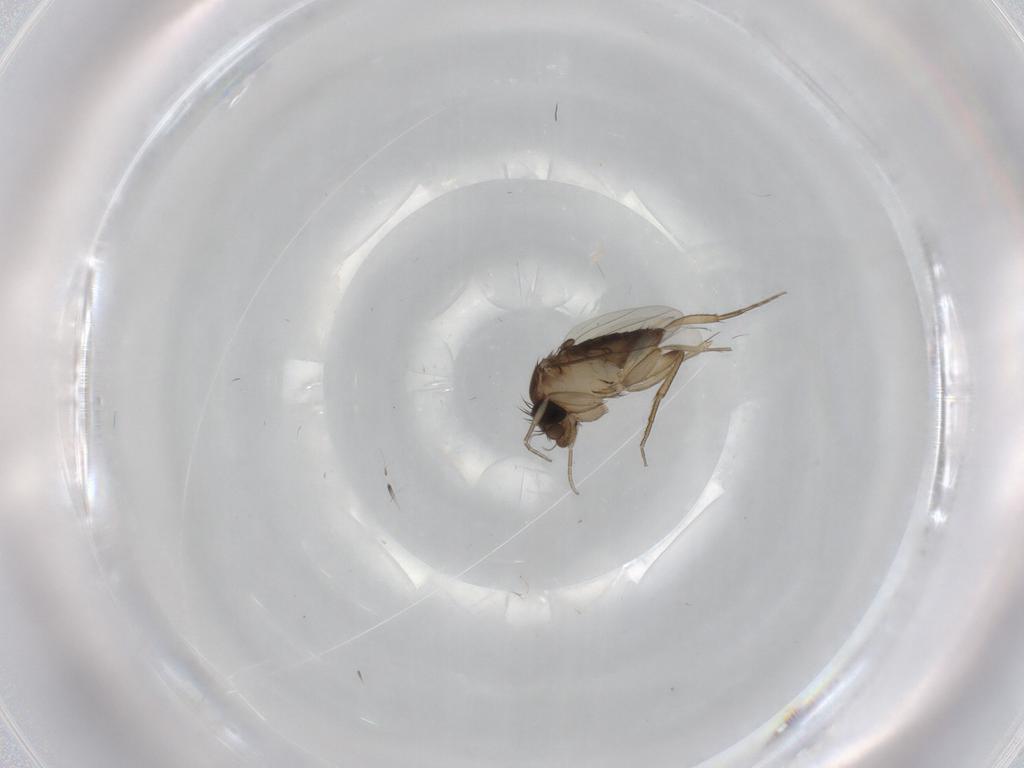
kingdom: Animalia
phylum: Arthropoda
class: Insecta
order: Diptera
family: Phoridae
